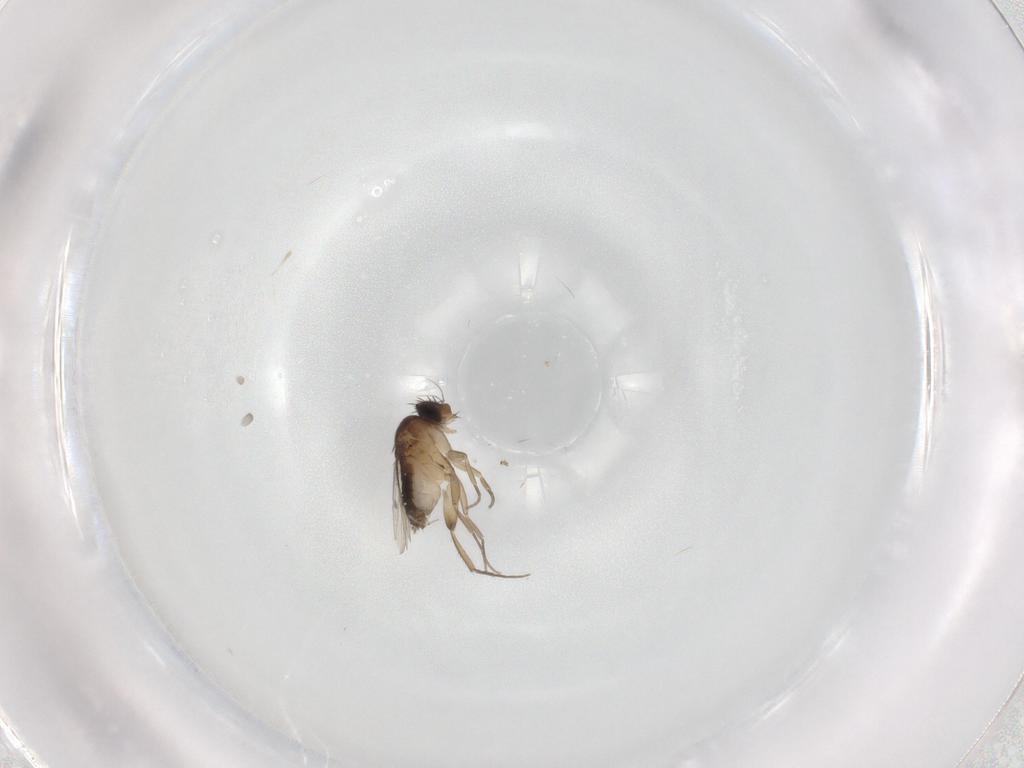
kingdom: Animalia
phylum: Arthropoda
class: Insecta
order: Diptera
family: Phoridae
